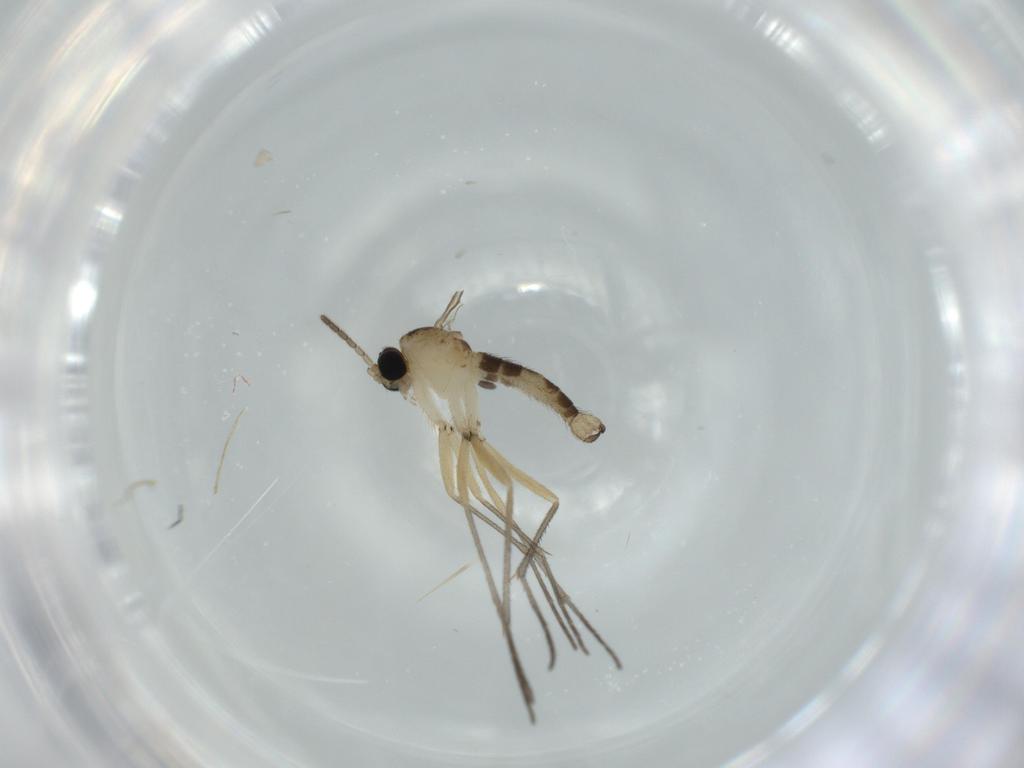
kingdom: Animalia
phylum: Arthropoda
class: Insecta
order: Diptera
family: Sciaridae
